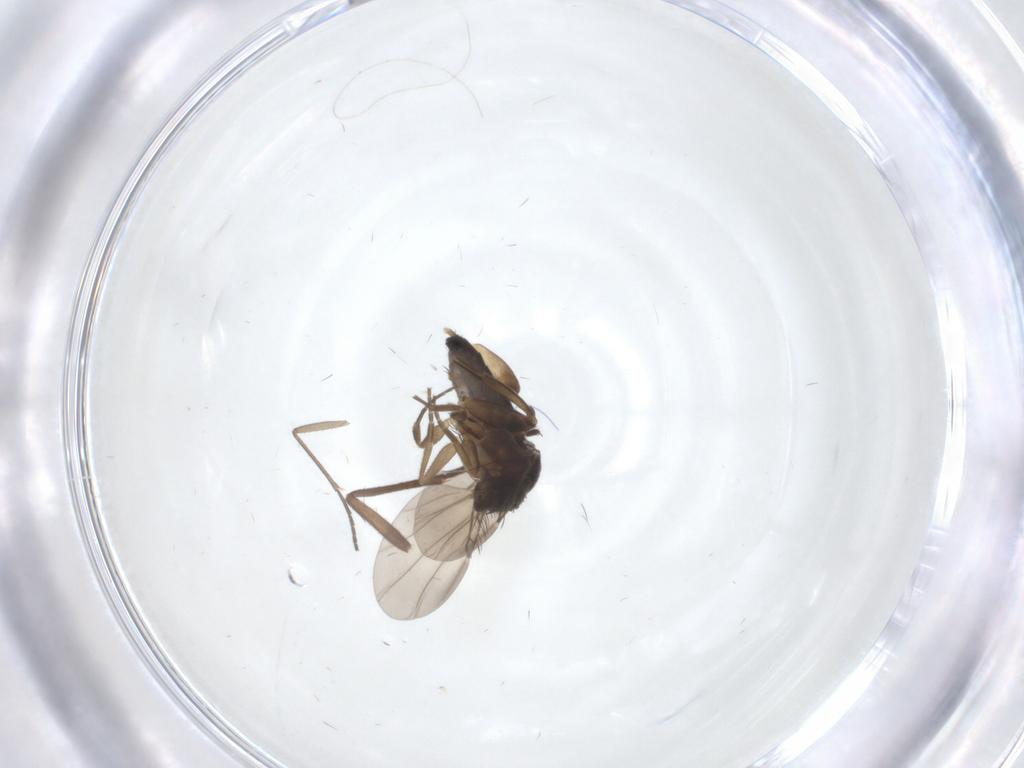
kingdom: Animalia
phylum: Arthropoda
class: Insecta
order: Diptera
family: Phoridae
